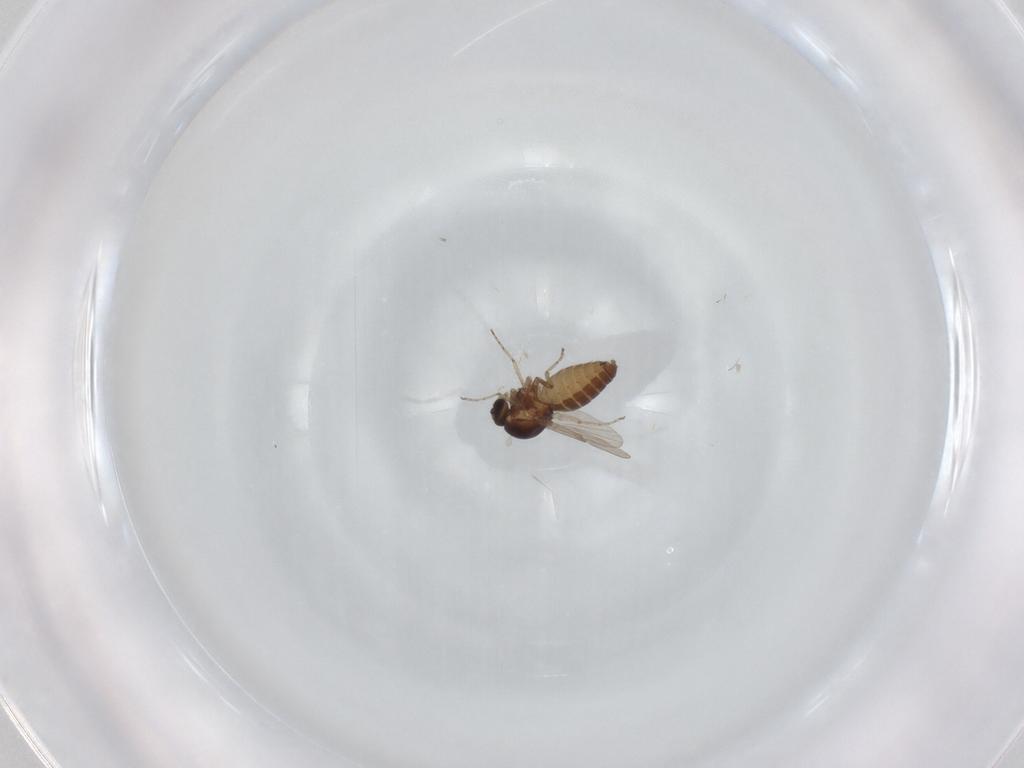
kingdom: Animalia
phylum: Arthropoda
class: Insecta
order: Diptera
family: Ceratopogonidae
